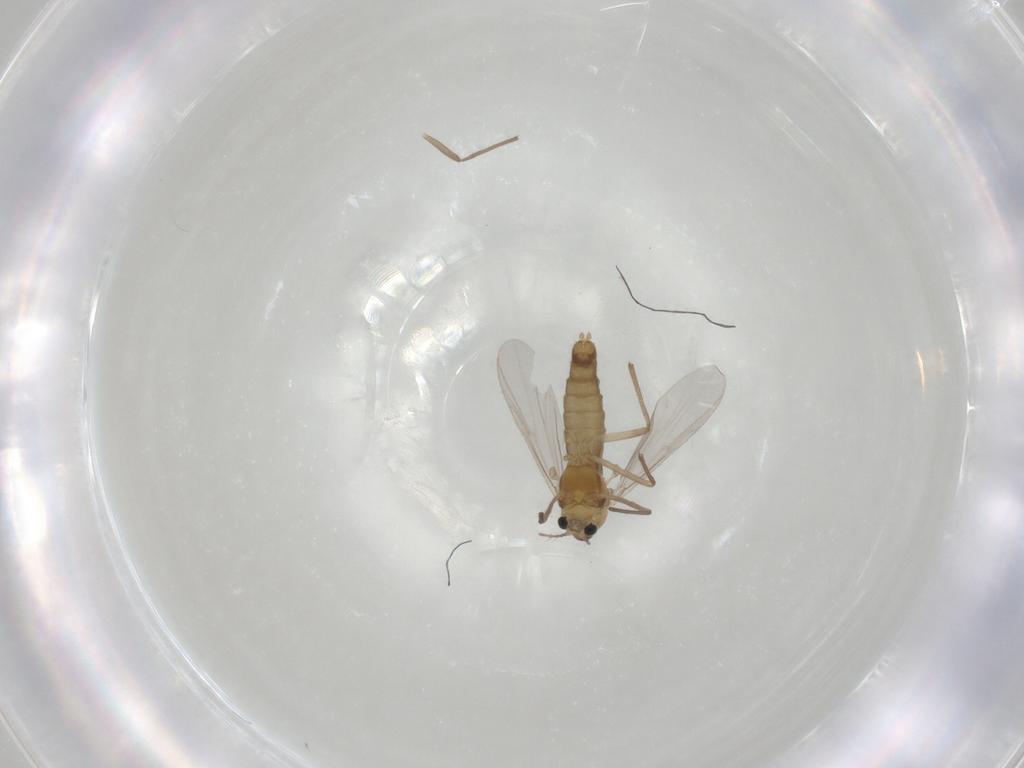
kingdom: Animalia
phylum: Arthropoda
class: Insecta
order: Diptera
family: Chironomidae
